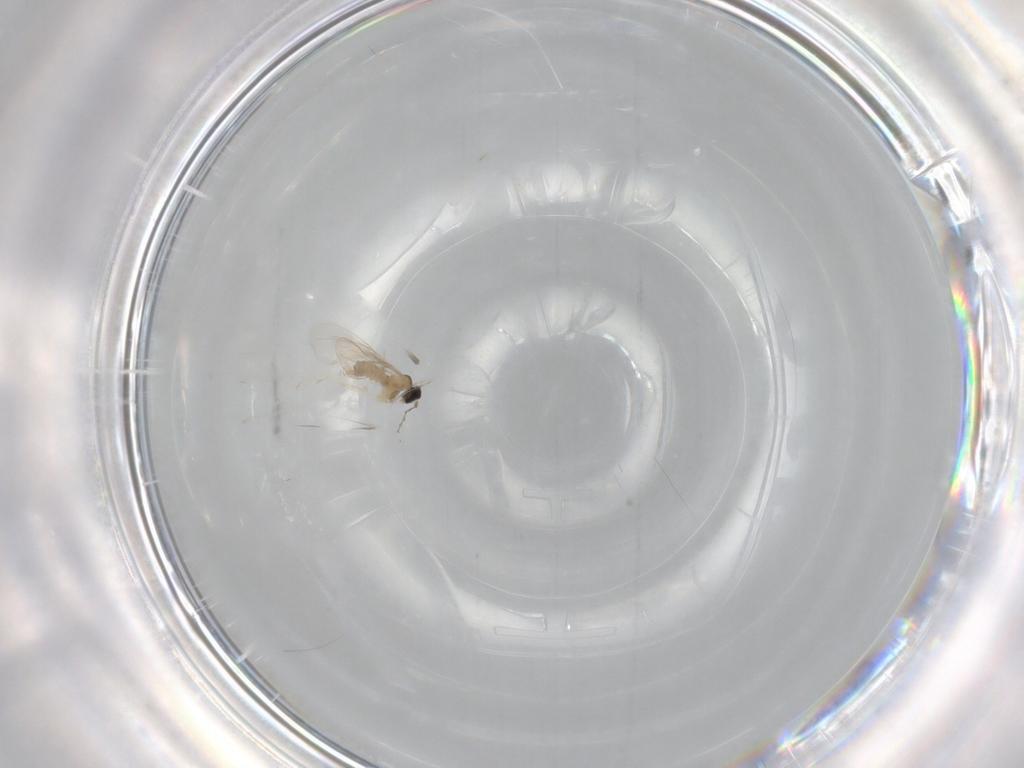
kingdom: Animalia
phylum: Arthropoda
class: Insecta
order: Diptera
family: Cecidomyiidae
